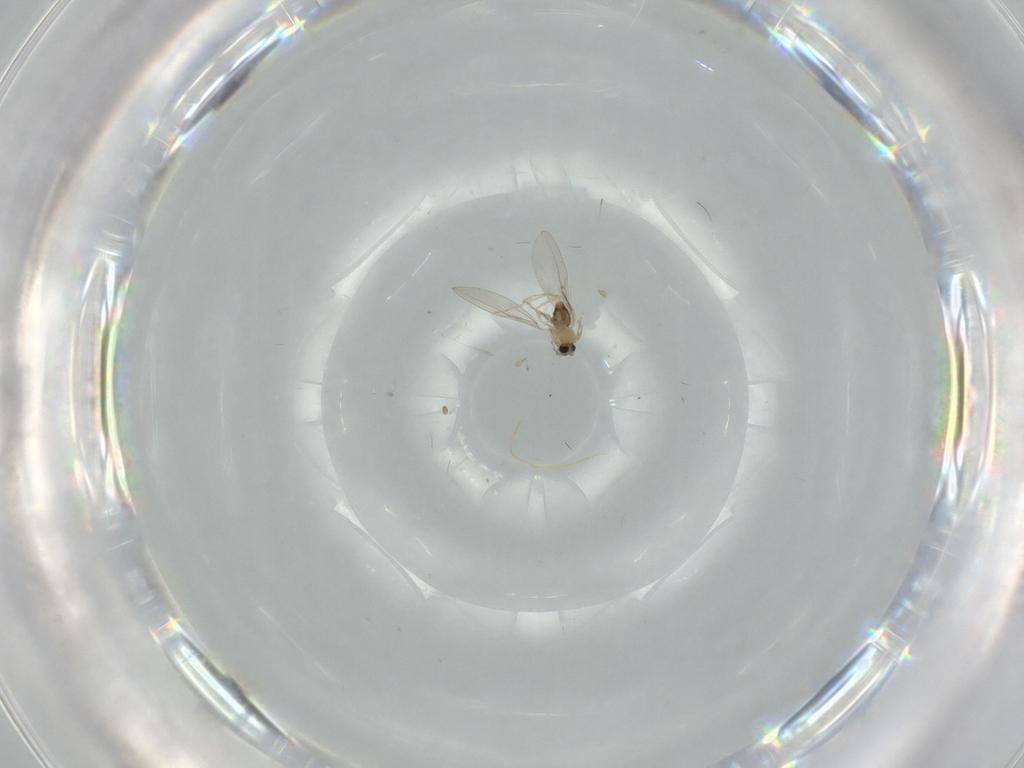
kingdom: Animalia
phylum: Arthropoda
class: Insecta
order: Diptera
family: Cecidomyiidae
